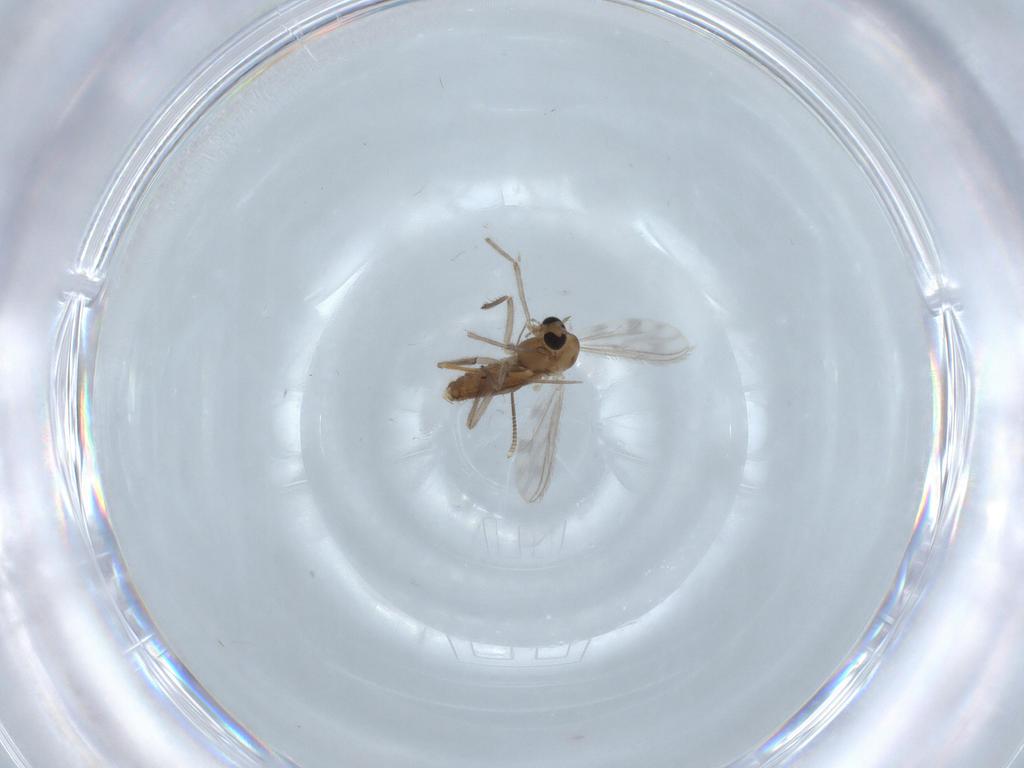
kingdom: Animalia
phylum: Arthropoda
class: Insecta
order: Diptera
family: Chironomidae
